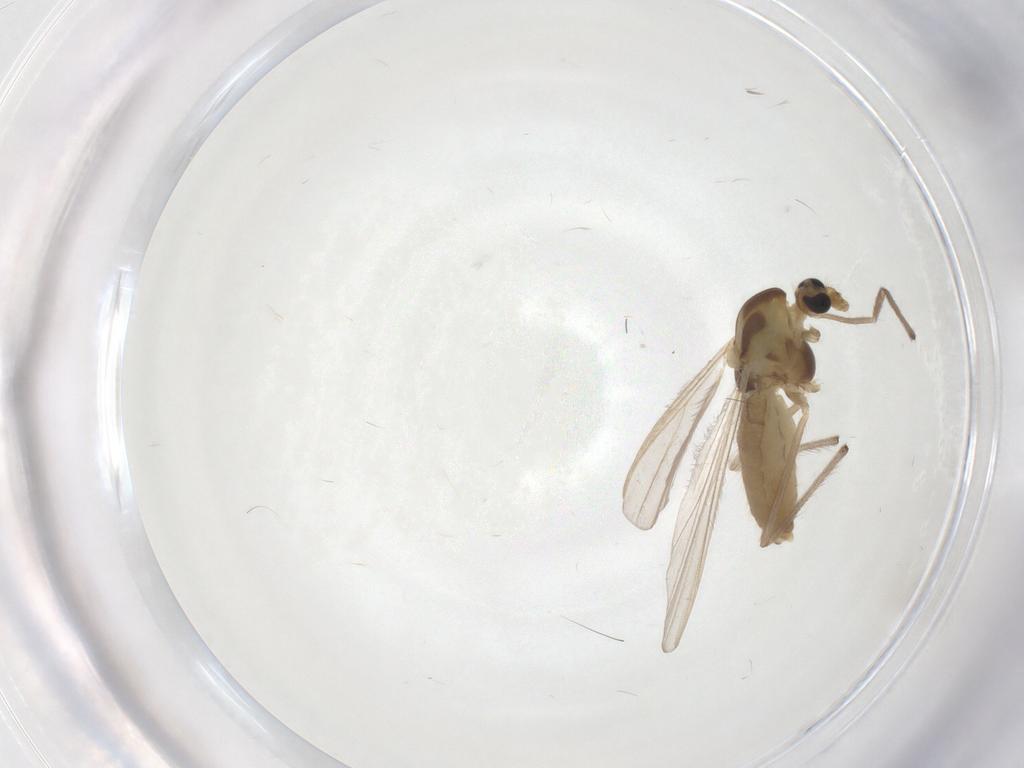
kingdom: Animalia
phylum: Arthropoda
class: Insecta
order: Diptera
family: Chironomidae
